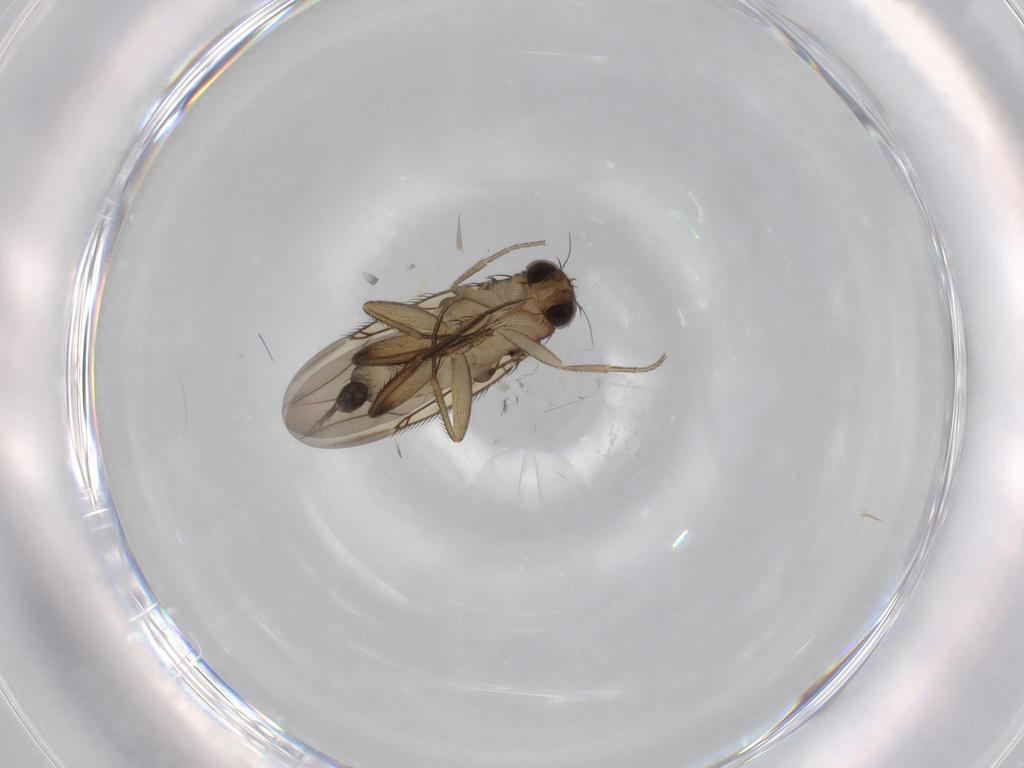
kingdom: Animalia
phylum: Arthropoda
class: Insecta
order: Diptera
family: Phoridae
